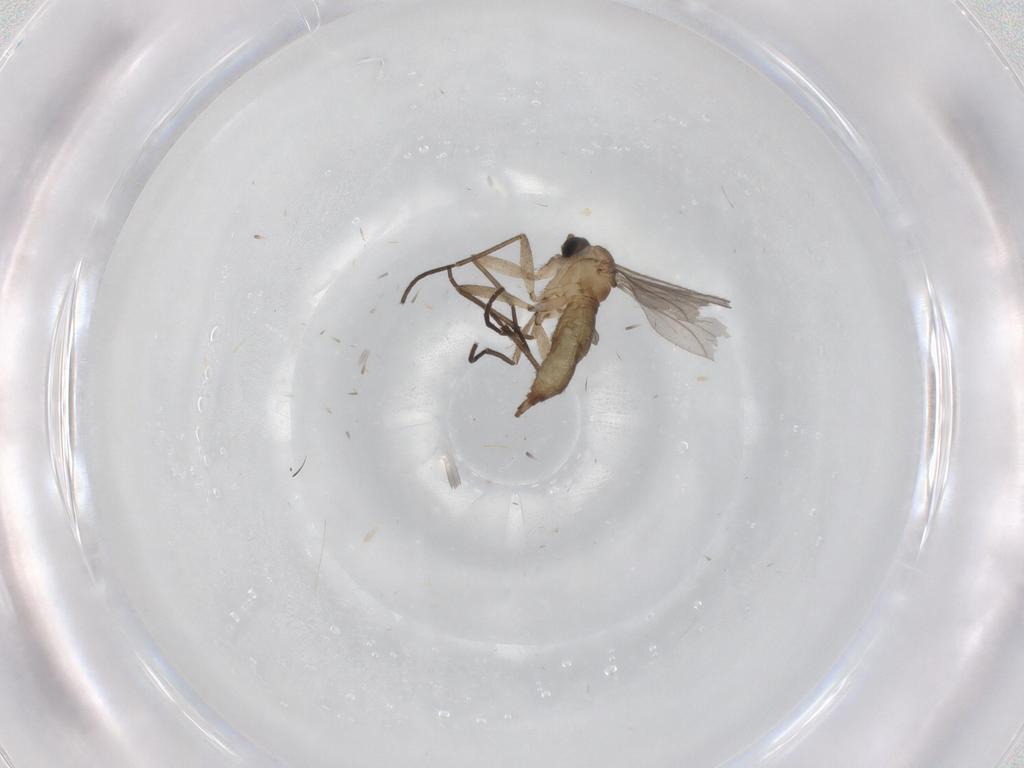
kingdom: Animalia
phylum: Arthropoda
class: Insecta
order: Diptera
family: Sciaridae
